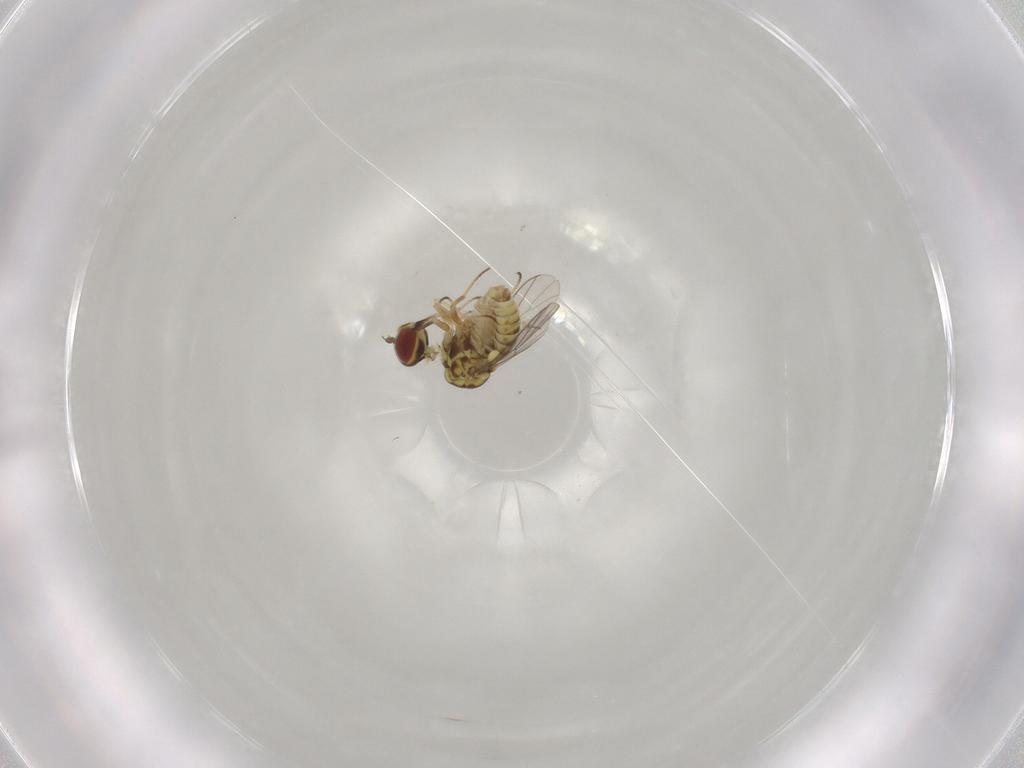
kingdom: Animalia
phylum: Arthropoda
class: Insecta
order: Diptera
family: Mythicomyiidae
